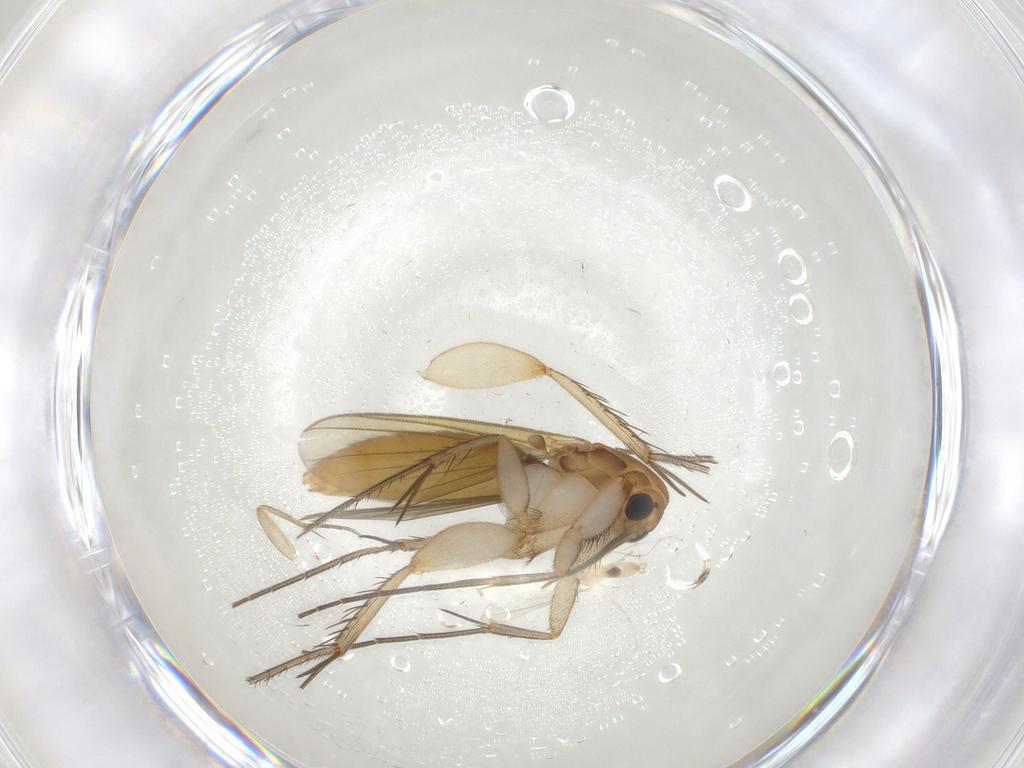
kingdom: Animalia
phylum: Arthropoda
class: Insecta
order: Diptera
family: Mycetophilidae
